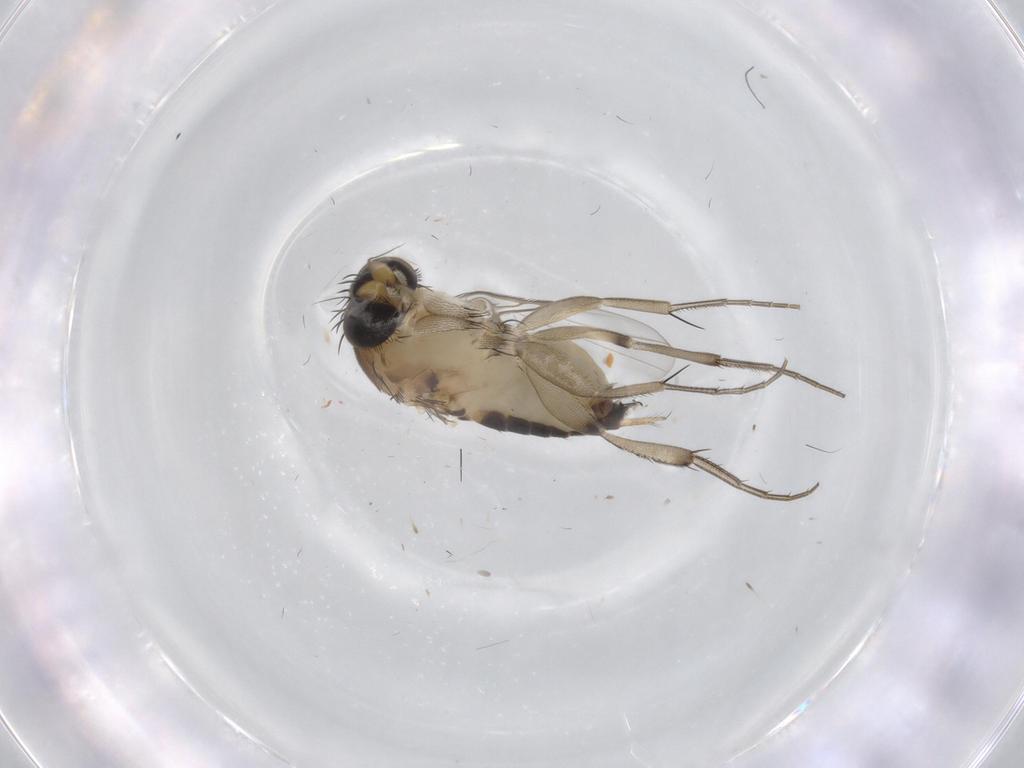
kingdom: Animalia
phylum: Arthropoda
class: Insecta
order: Diptera
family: Phoridae
